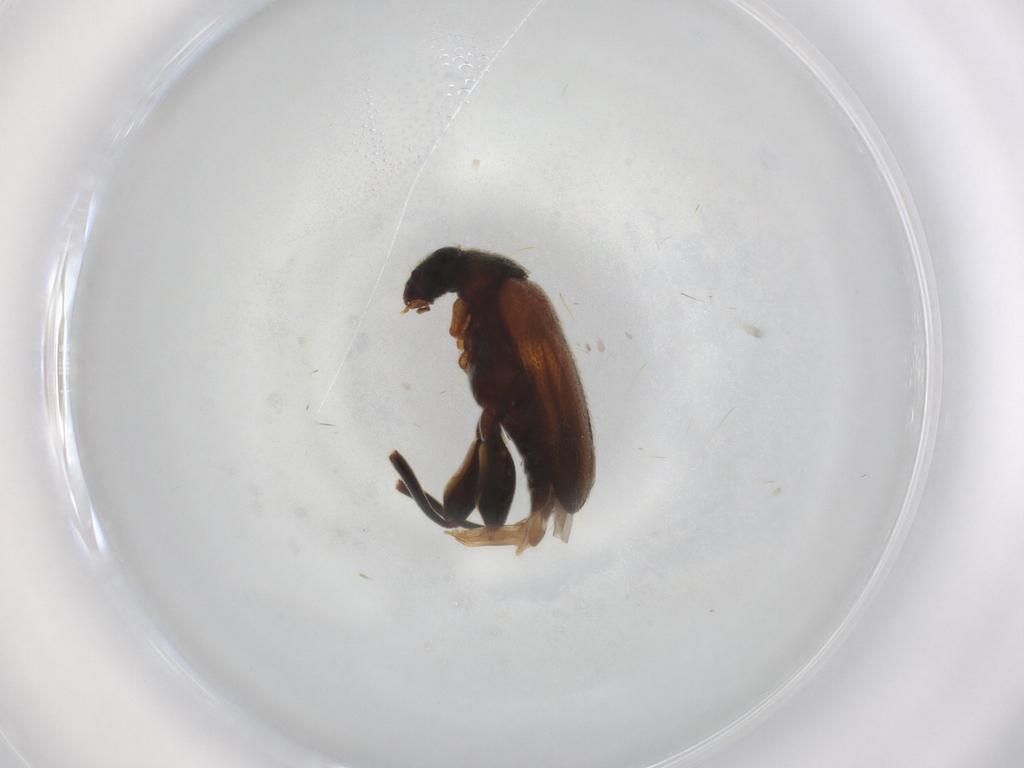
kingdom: Animalia
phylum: Arthropoda
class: Insecta
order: Coleoptera
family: Aderidae
